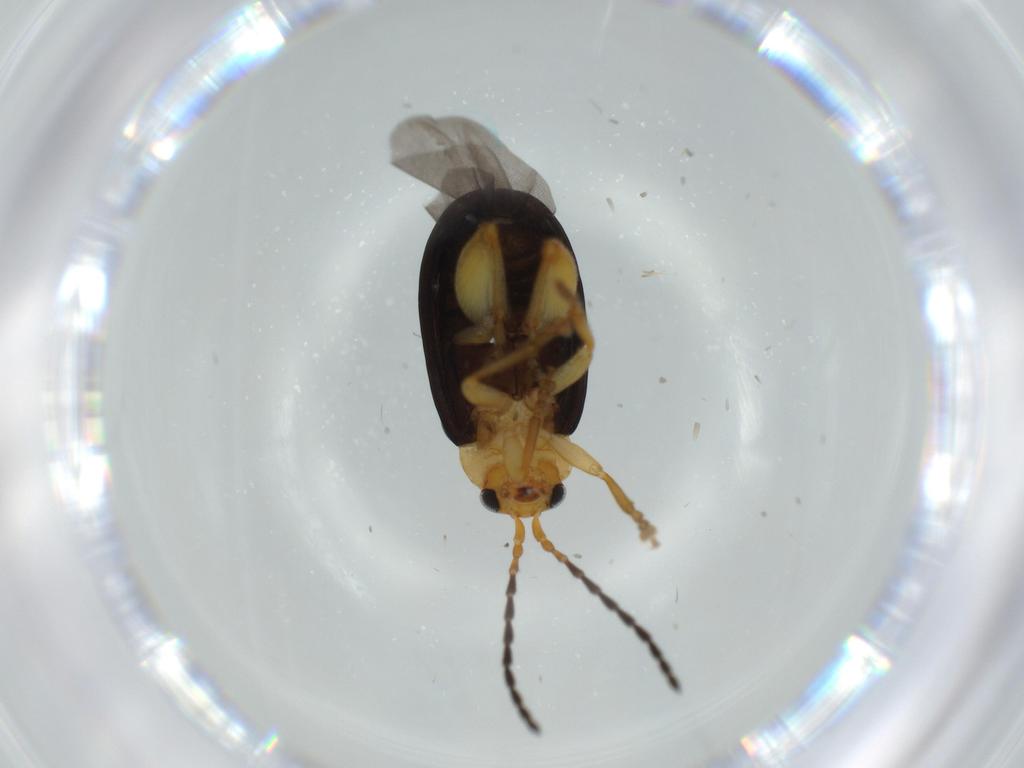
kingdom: Animalia
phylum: Arthropoda
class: Insecta
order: Coleoptera
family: Chrysomelidae
